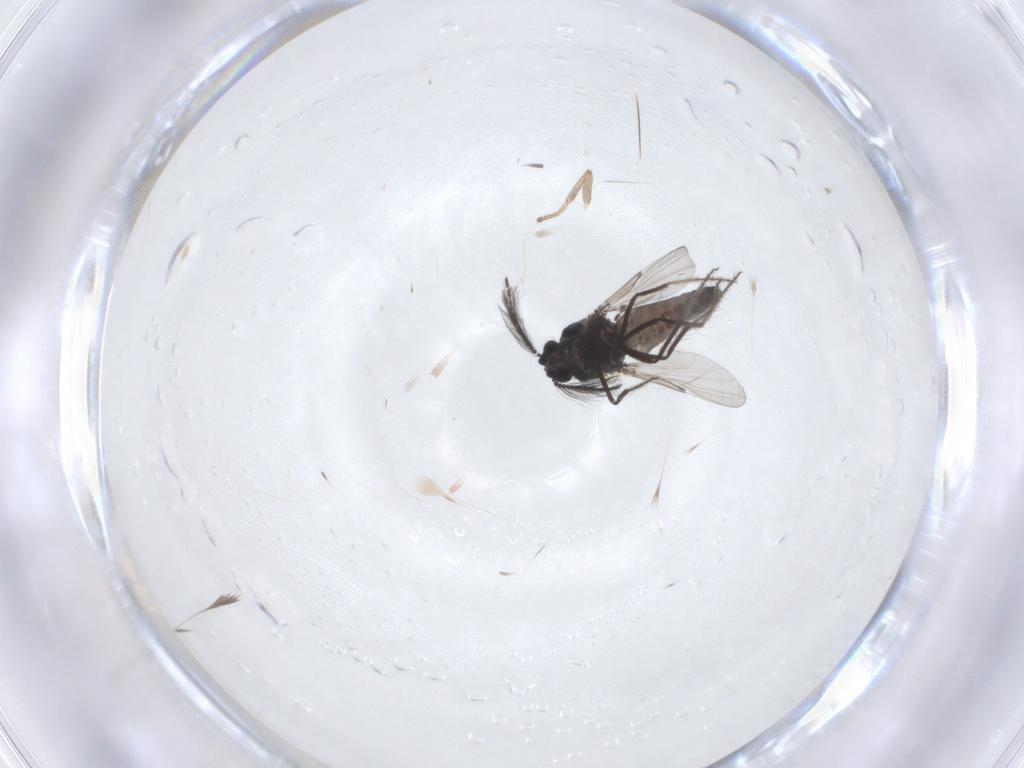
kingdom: Animalia
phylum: Arthropoda
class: Insecta
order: Diptera
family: Ceratopogonidae
